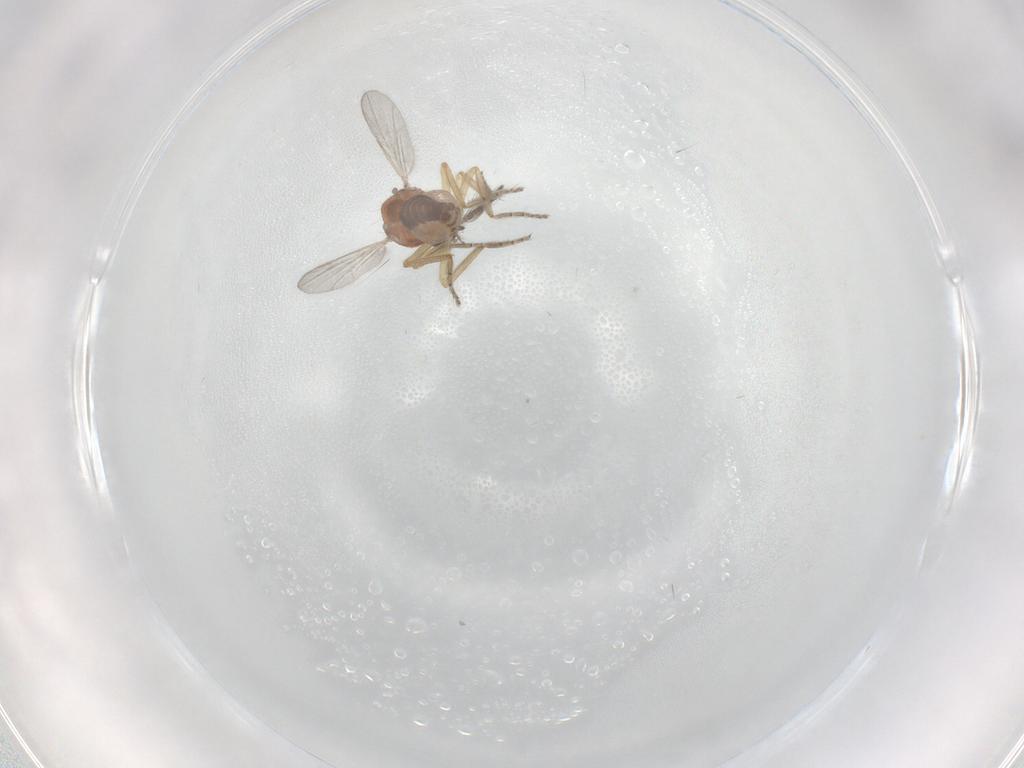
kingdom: Animalia
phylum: Arthropoda
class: Insecta
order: Diptera
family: Ceratopogonidae
